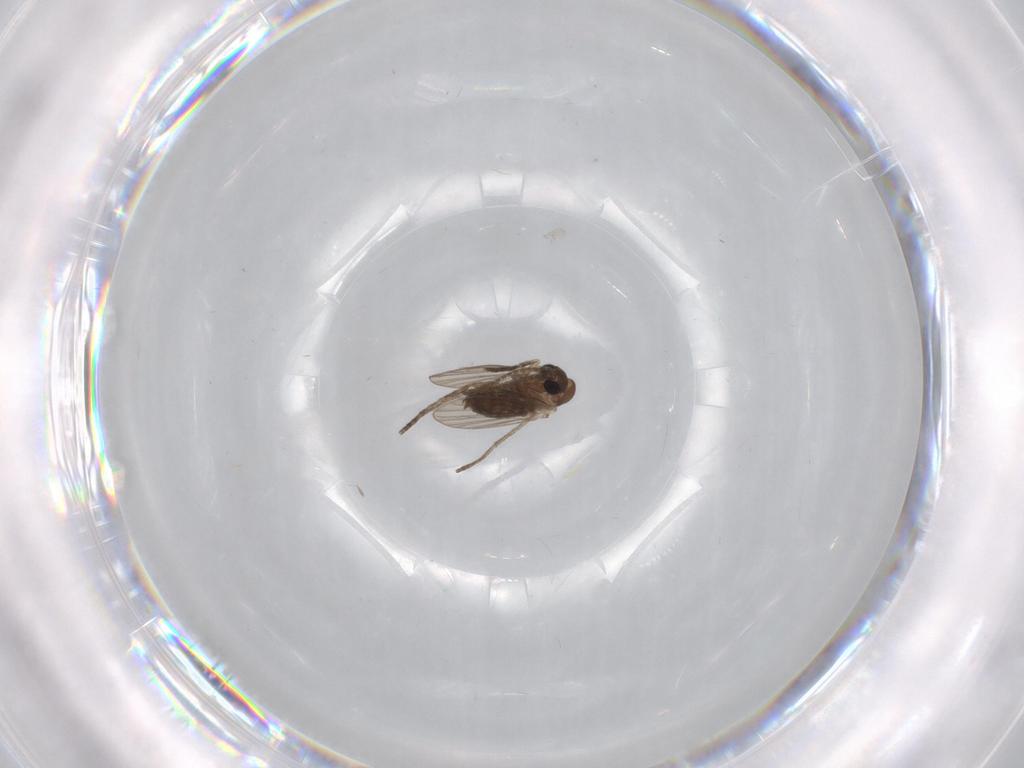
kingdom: Animalia
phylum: Arthropoda
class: Insecta
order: Diptera
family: Psychodidae
